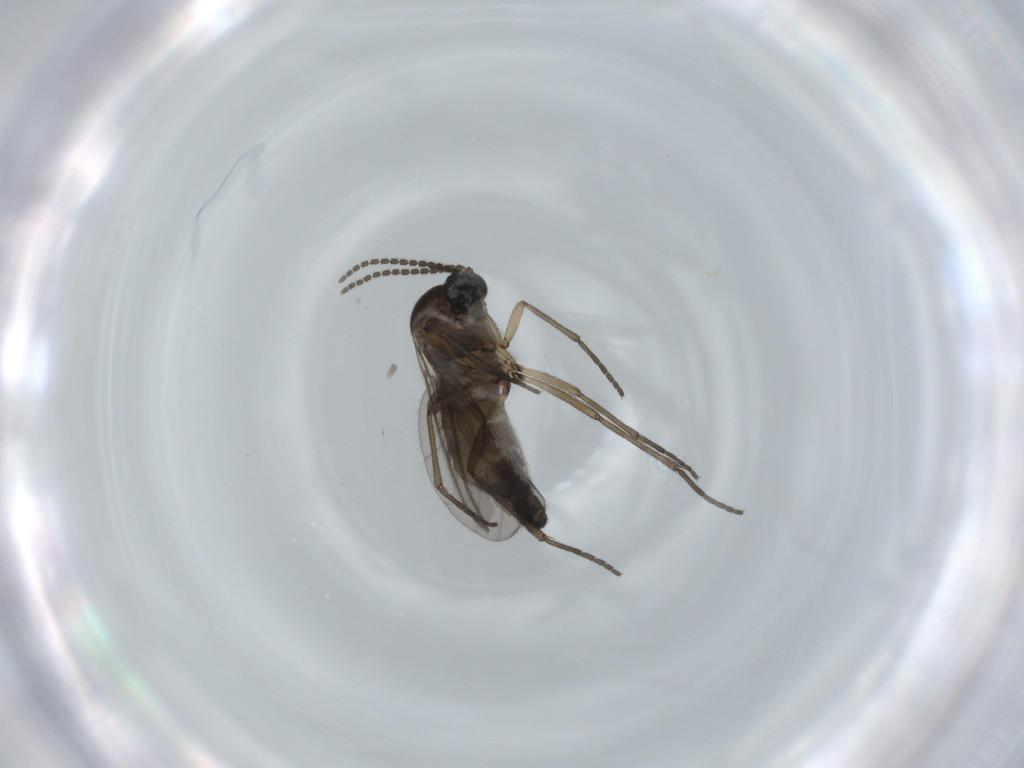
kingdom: Animalia
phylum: Arthropoda
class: Insecta
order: Diptera
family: Sciaridae
